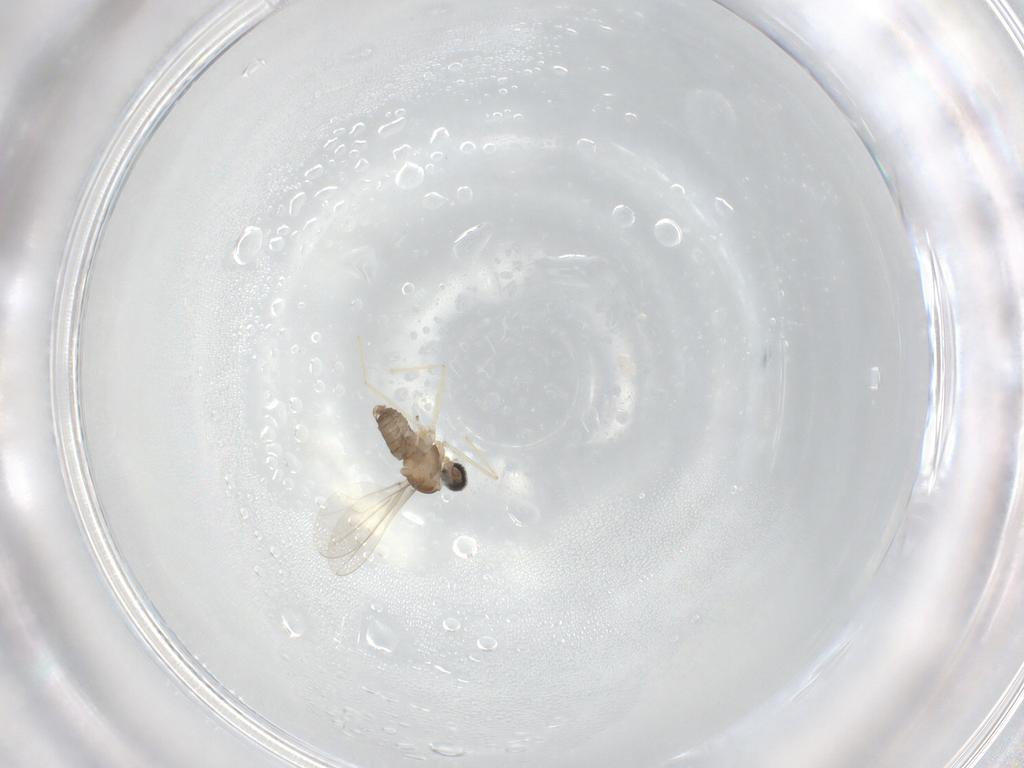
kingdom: Animalia
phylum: Arthropoda
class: Insecta
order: Diptera
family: Cecidomyiidae
